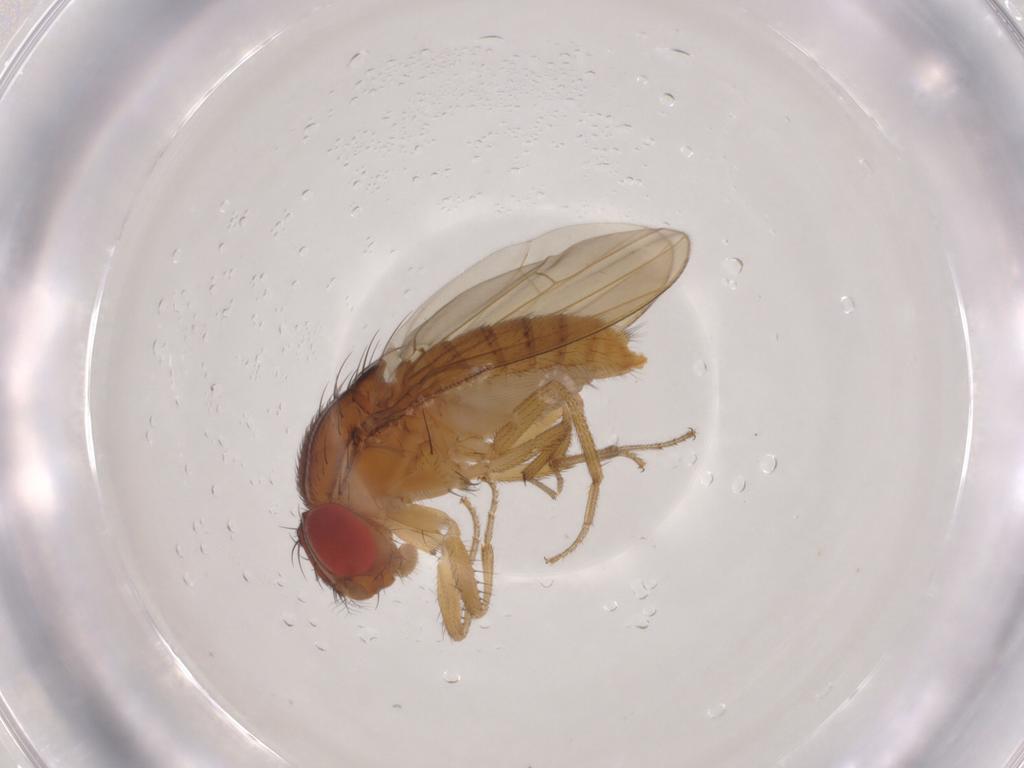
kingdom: Animalia
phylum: Arthropoda
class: Insecta
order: Diptera
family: Drosophilidae
